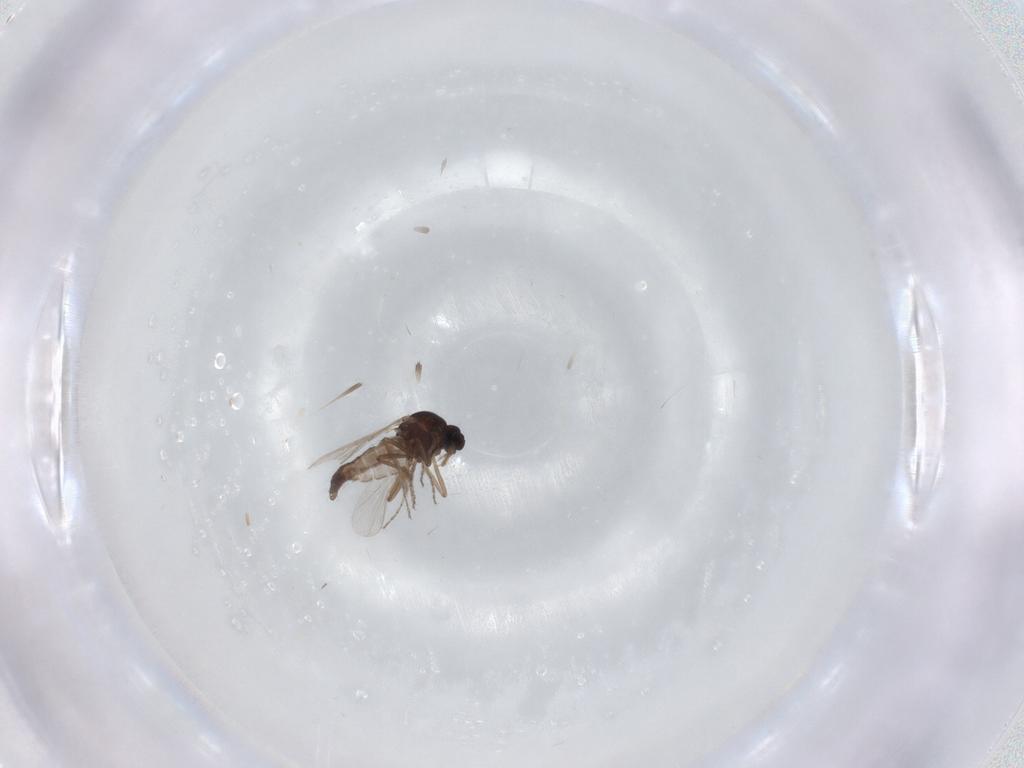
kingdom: Animalia
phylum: Arthropoda
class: Insecta
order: Diptera
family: Ceratopogonidae
